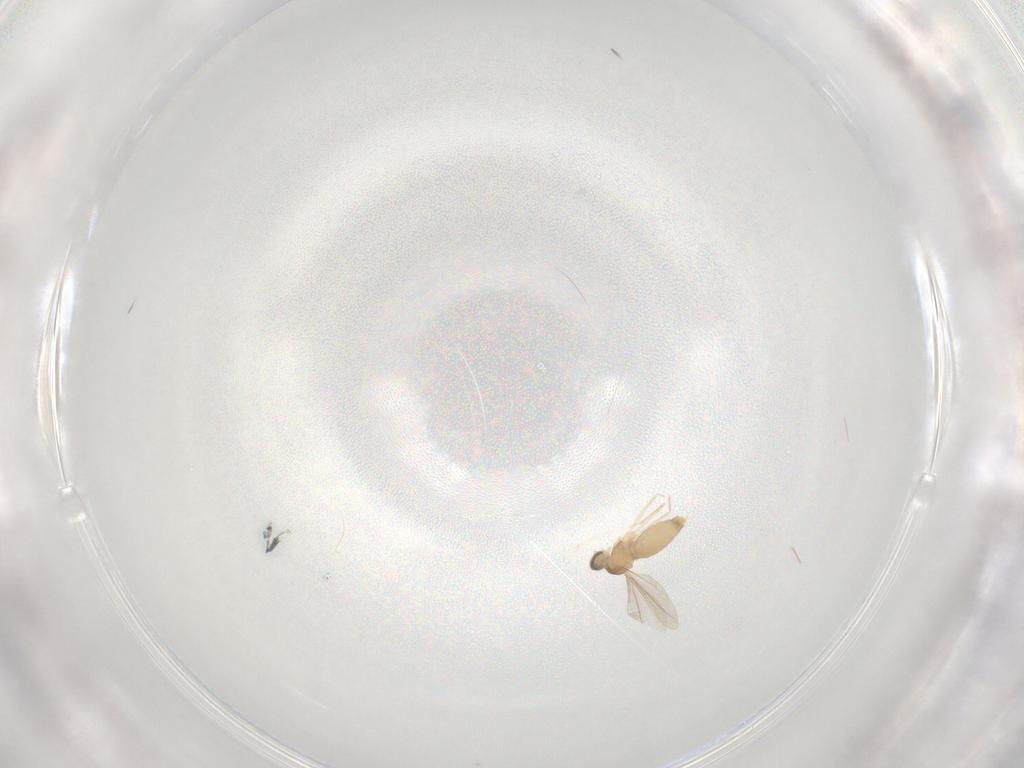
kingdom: Animalia
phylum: Arthropoda
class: Insecta
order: Diptera
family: Cecidomyiidae
